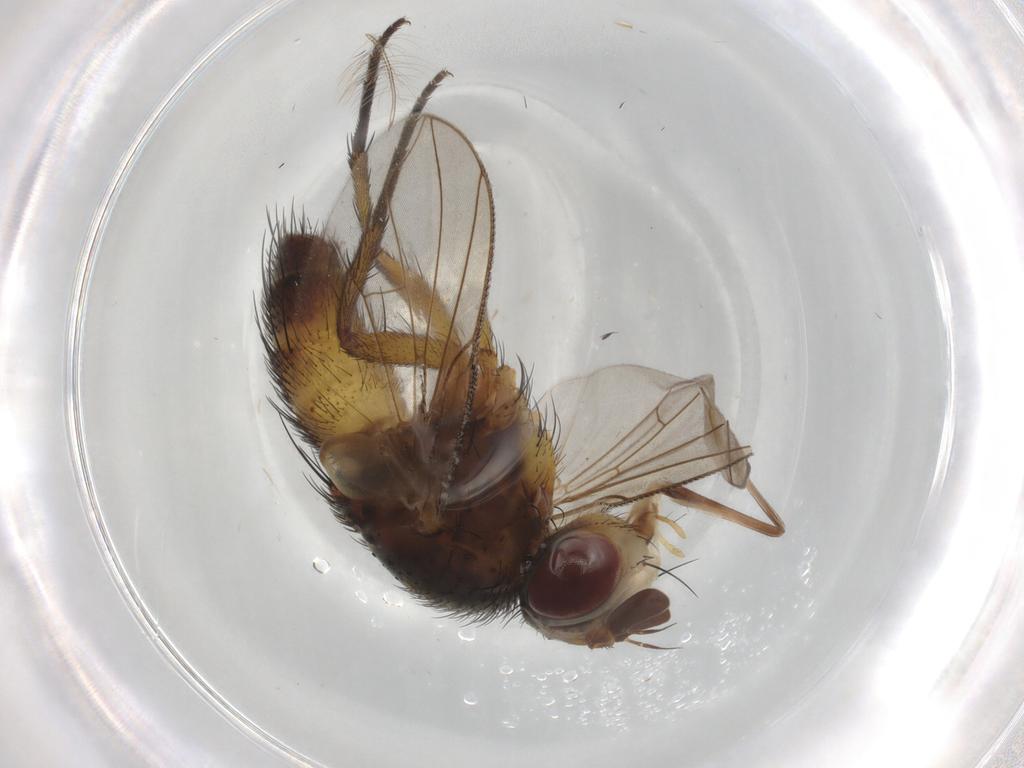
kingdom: Animalia
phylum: Arthropoda
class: Insecta
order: Diptera
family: Tachinidae
